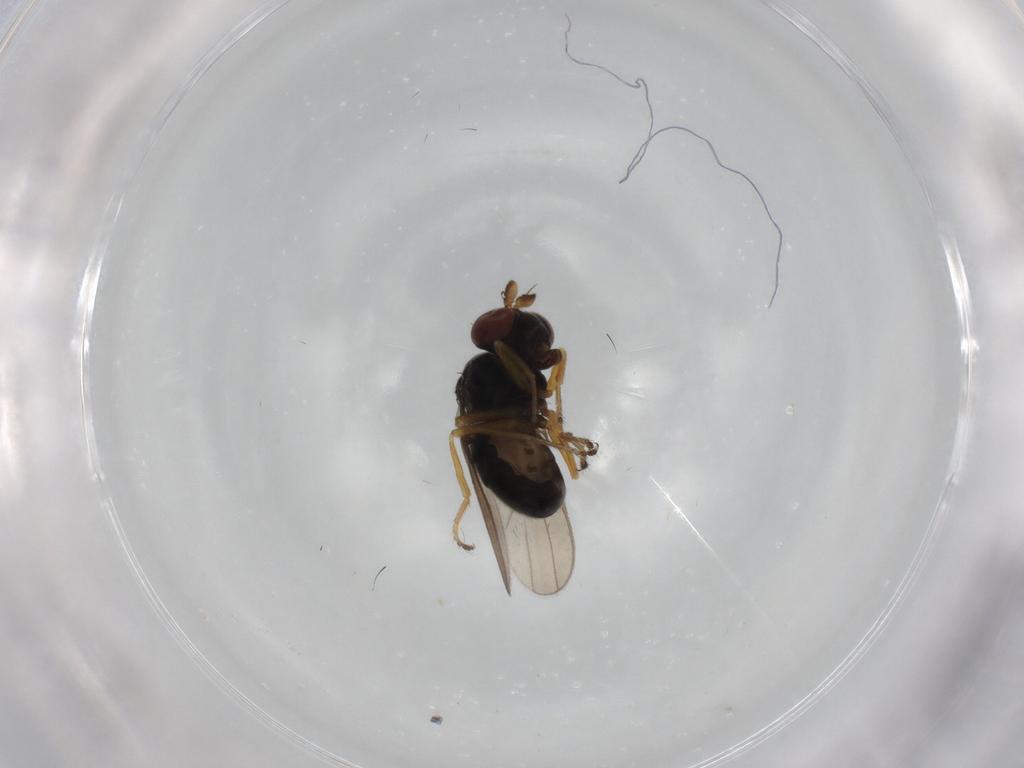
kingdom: Animalia
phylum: Arthropoda
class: Insecta
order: Diptera
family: Ephydridae
